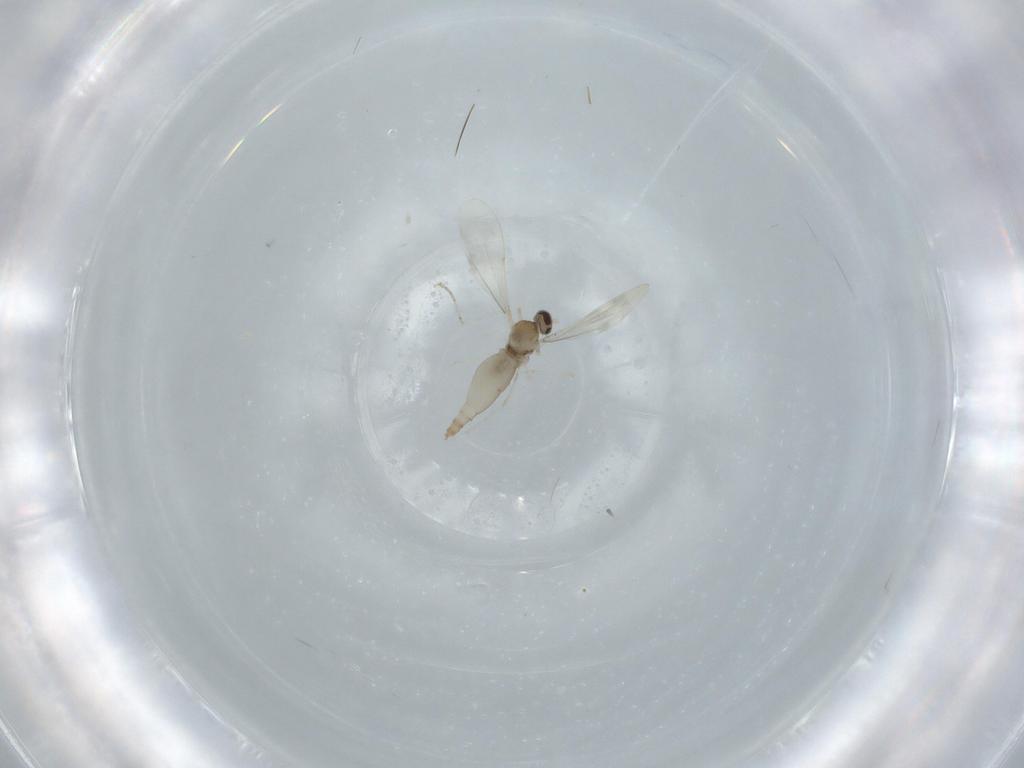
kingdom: Animalia
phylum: Arthropoda
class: Insecta
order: Diptera
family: Cecidomyiidae
